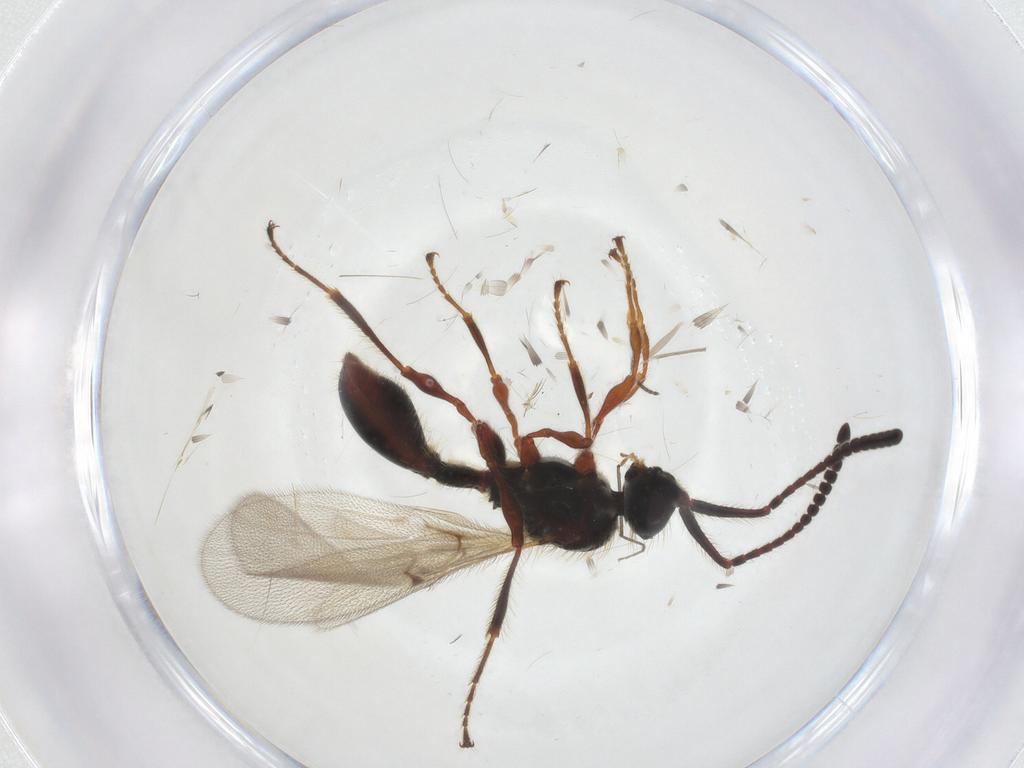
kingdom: Animalia
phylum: Arthropoda
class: Insecta
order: Hymenoptera
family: Diapriidae
